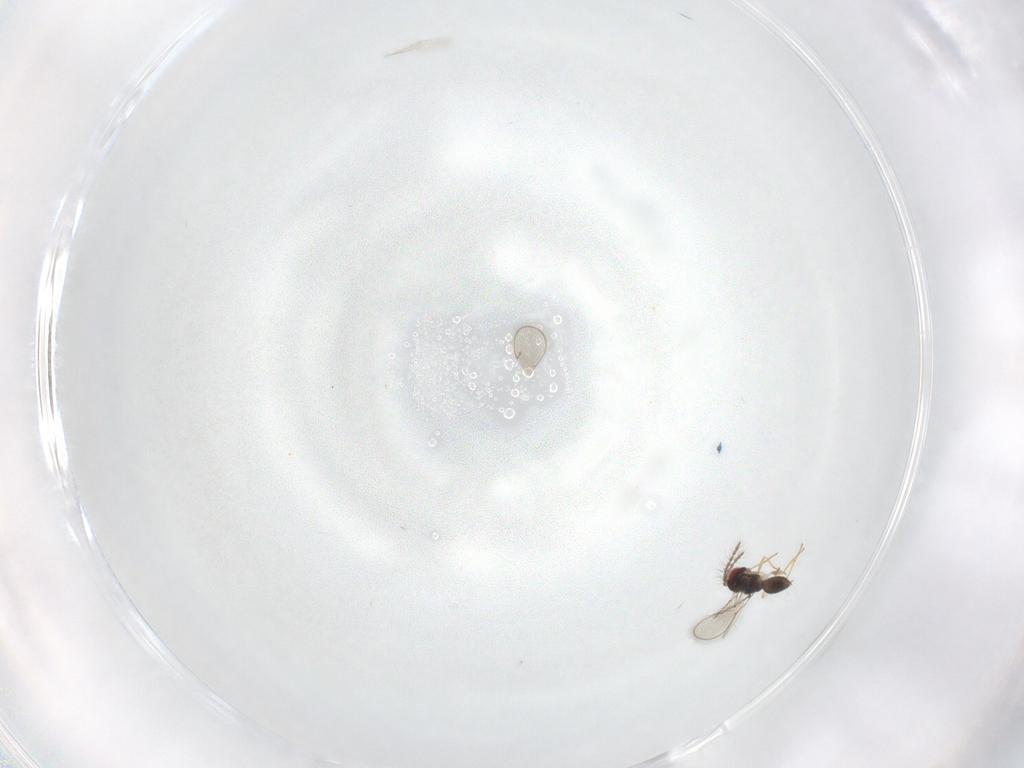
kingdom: Animalia
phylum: Arthropoda
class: Insecta
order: Hymenoptera
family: Eulophidae
